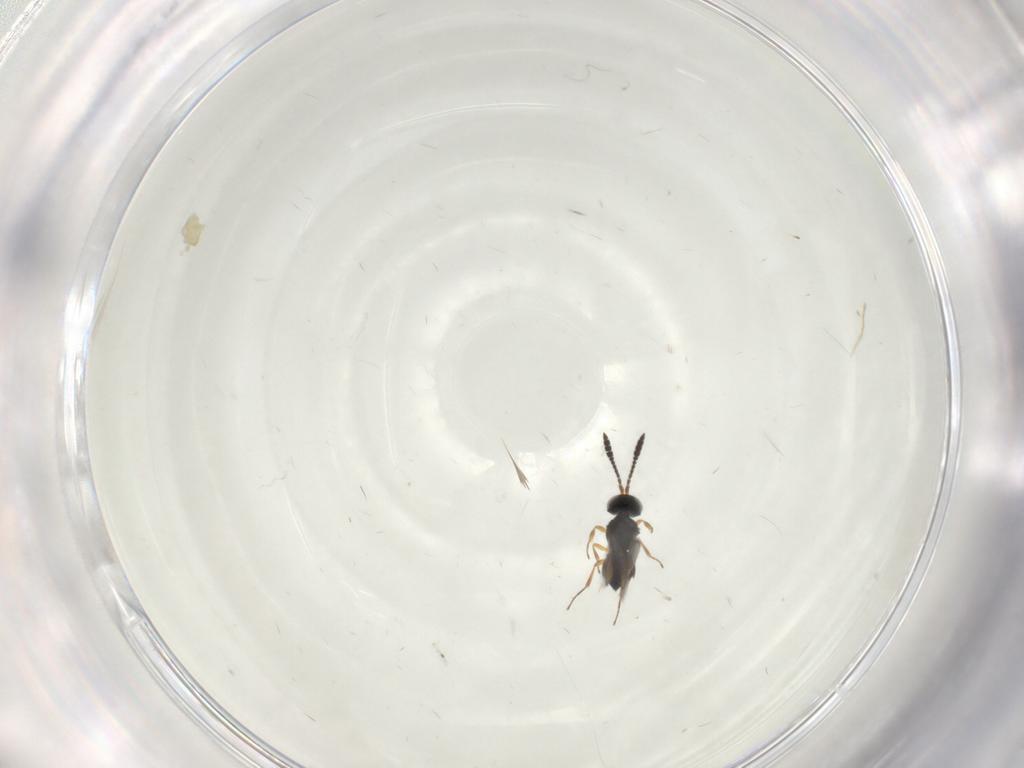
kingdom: Animalia
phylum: Arthropoda
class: Insecta
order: Hymenoptera
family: Scelionidae
